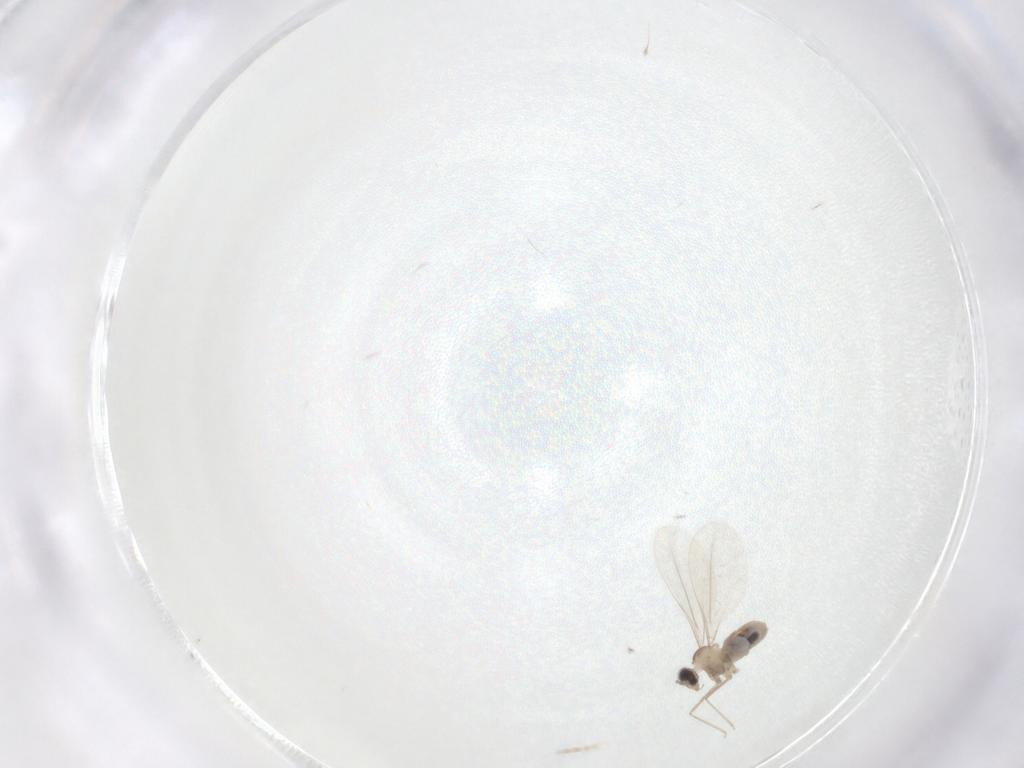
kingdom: Animalia
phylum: Arthropoda
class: Insecta
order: Diptera
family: Cecidomyiidae
